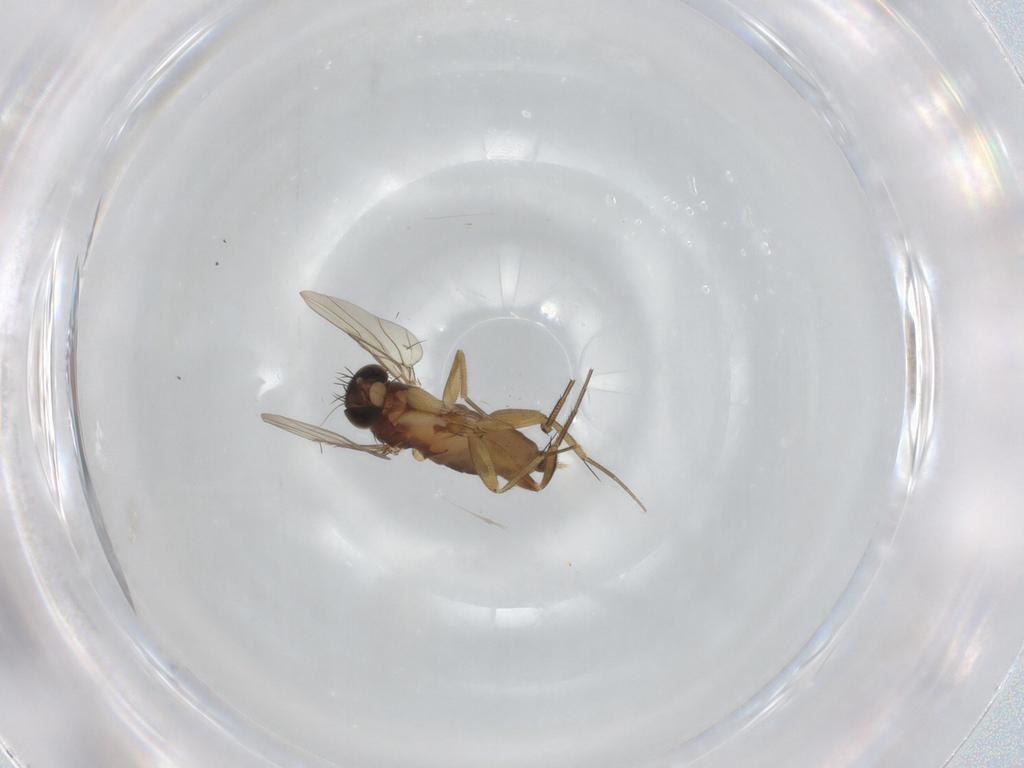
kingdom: Animalia
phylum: Arthropoda
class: Insecta
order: Diptera
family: Phoridae
